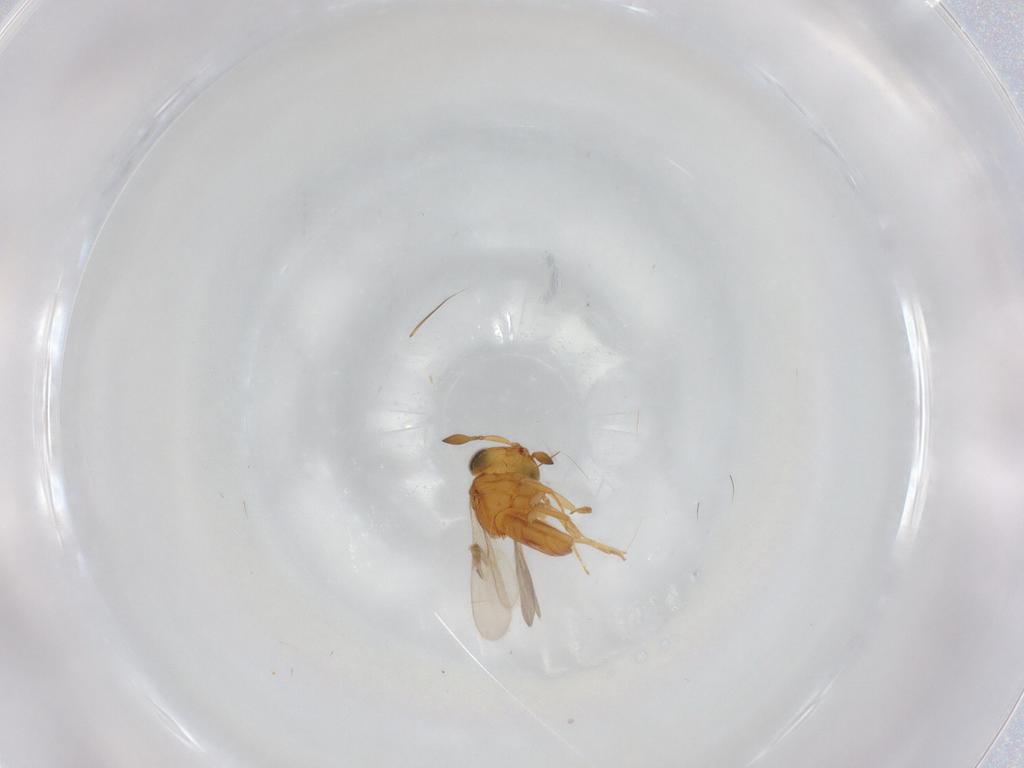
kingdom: Animalia
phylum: Arthropoda
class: Insecta
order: Hymenoptera
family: Scelionidae
